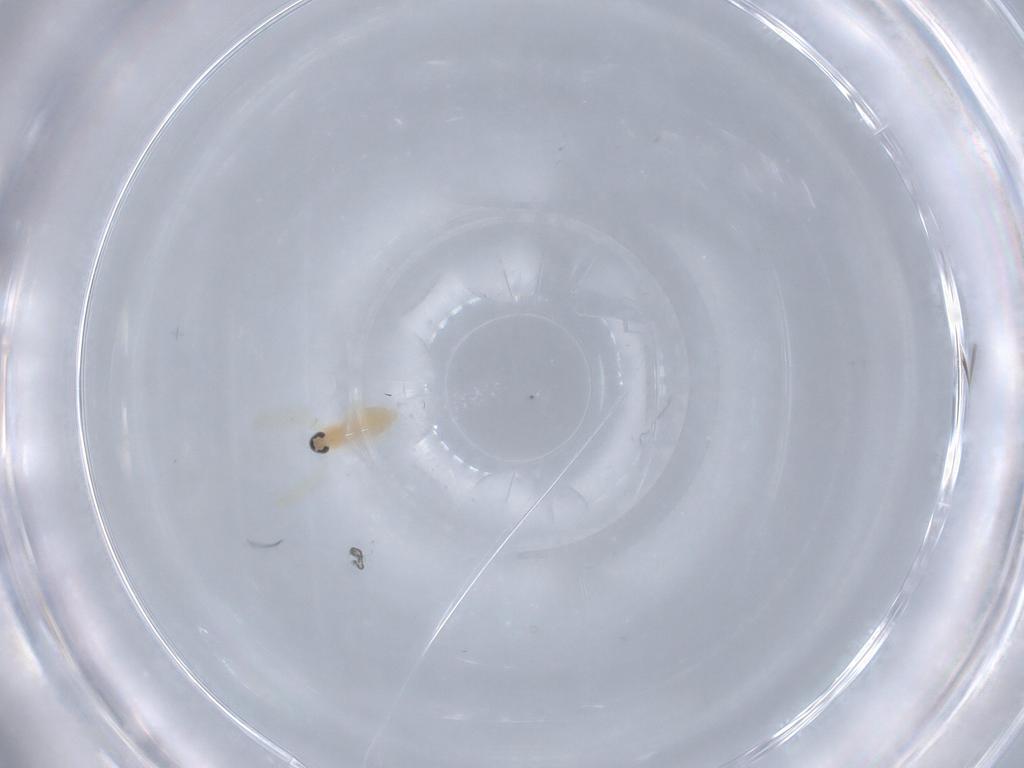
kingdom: Animalia
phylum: Arthropoda
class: Insecta
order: Diptera
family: Cecidomyiidae
